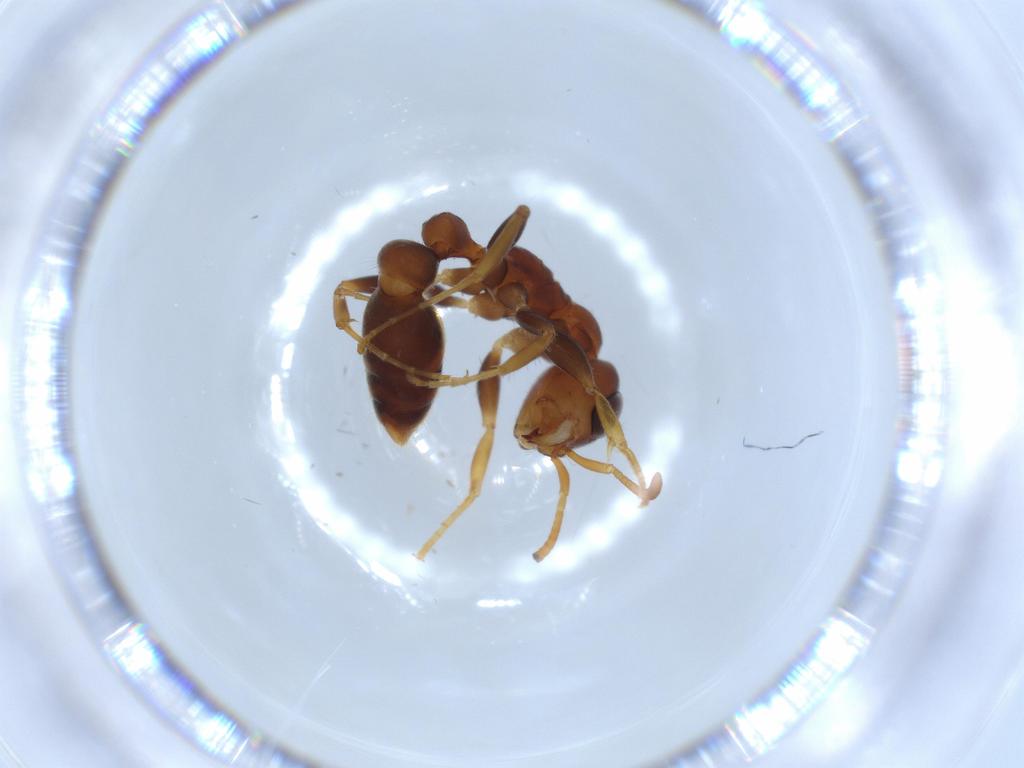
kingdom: Animalia
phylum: Arthropoda
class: Insecta
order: Hymenoptera
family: Formicidae
